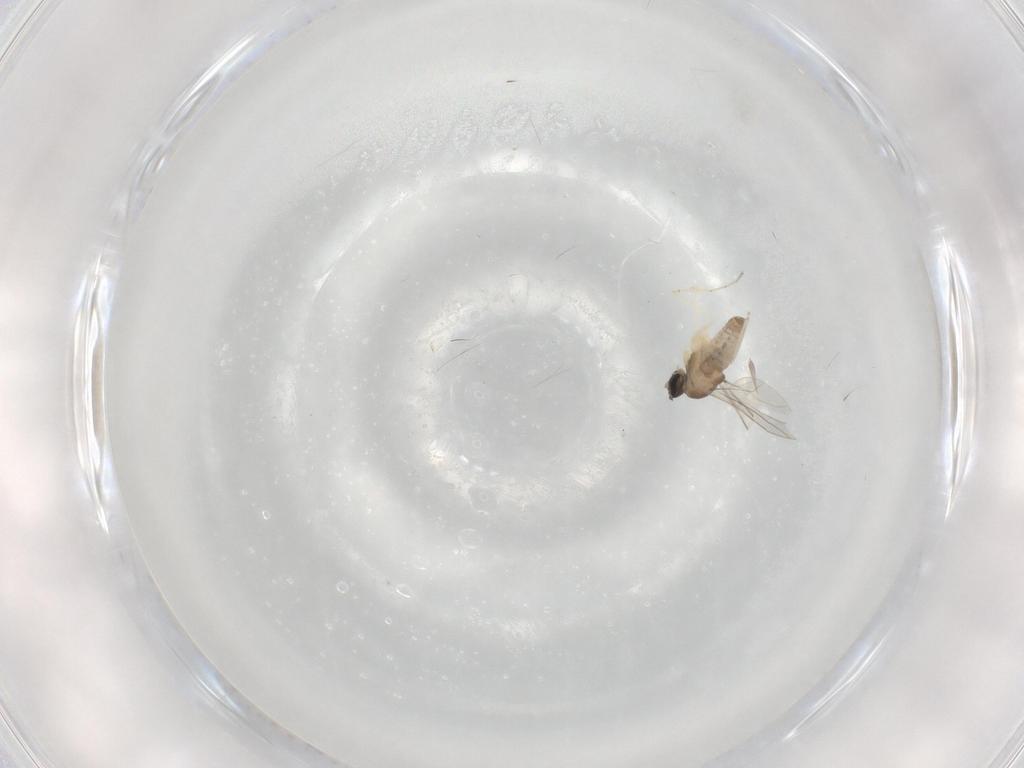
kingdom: Animalia
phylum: Arthropoda
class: Insecta
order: Diptera
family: Cecidomyiidae
